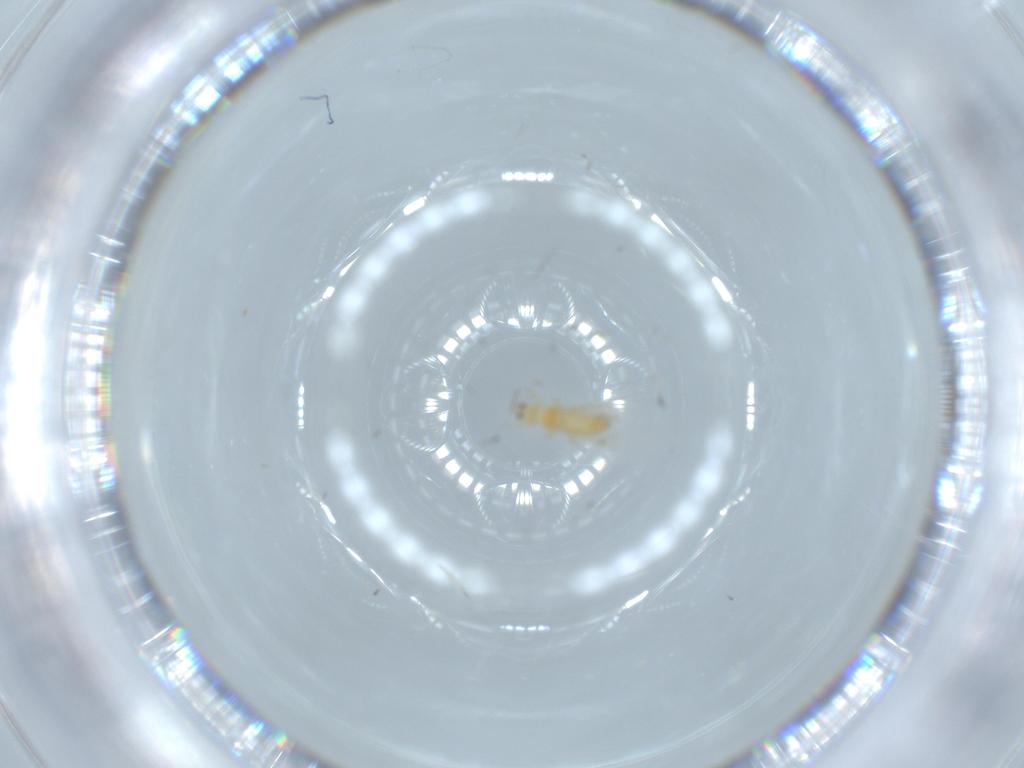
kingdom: Animalia
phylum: Arthropoda
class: Insecta
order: Thysanoptera
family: Thripidae
